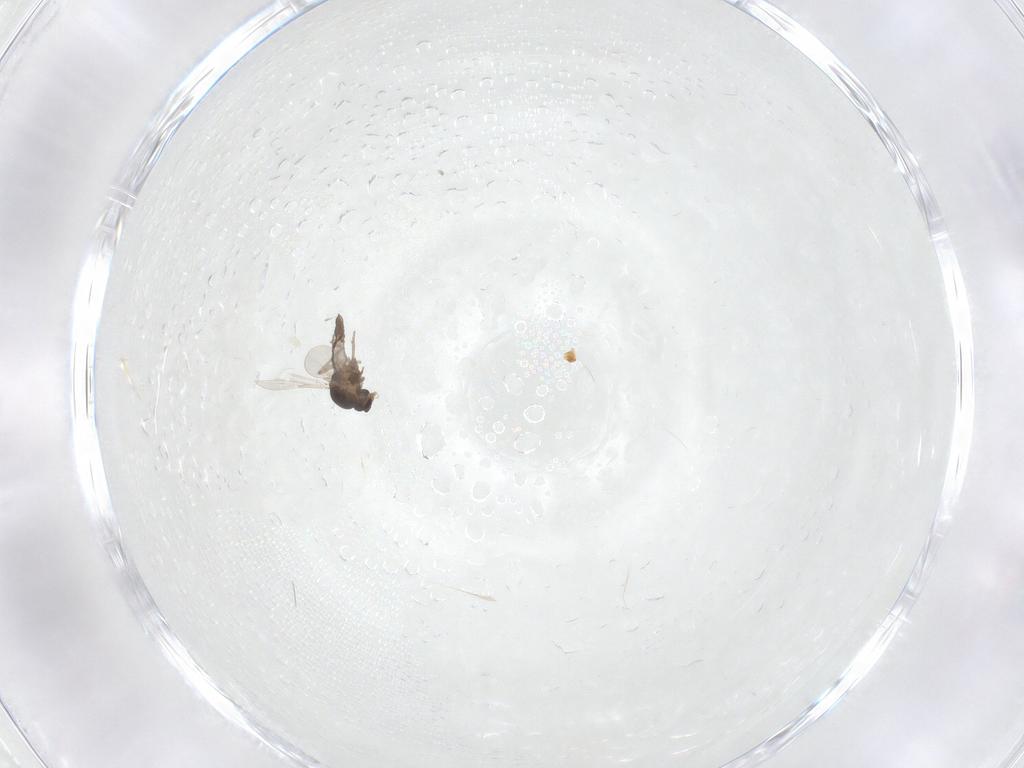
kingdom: Animalia
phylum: Arthropoda
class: Insecta
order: Diptera
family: Ceratopogonidae
